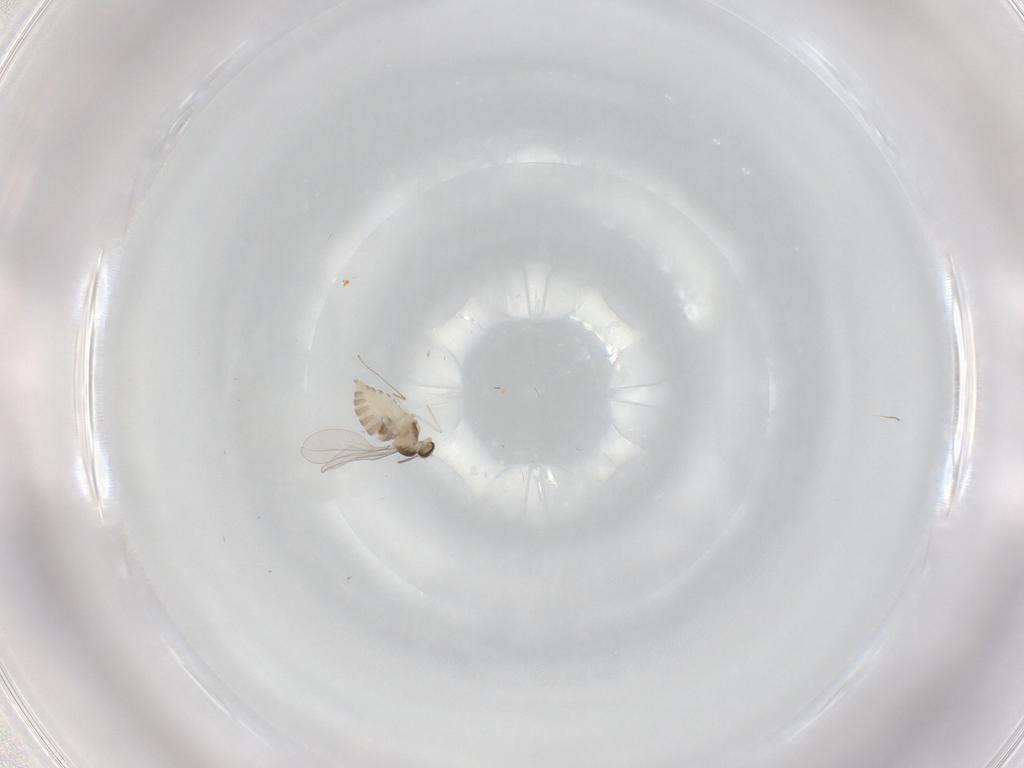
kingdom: Animalia
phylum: Arthropoda
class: Insecta
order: Diptera
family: Cecidomyiidae
